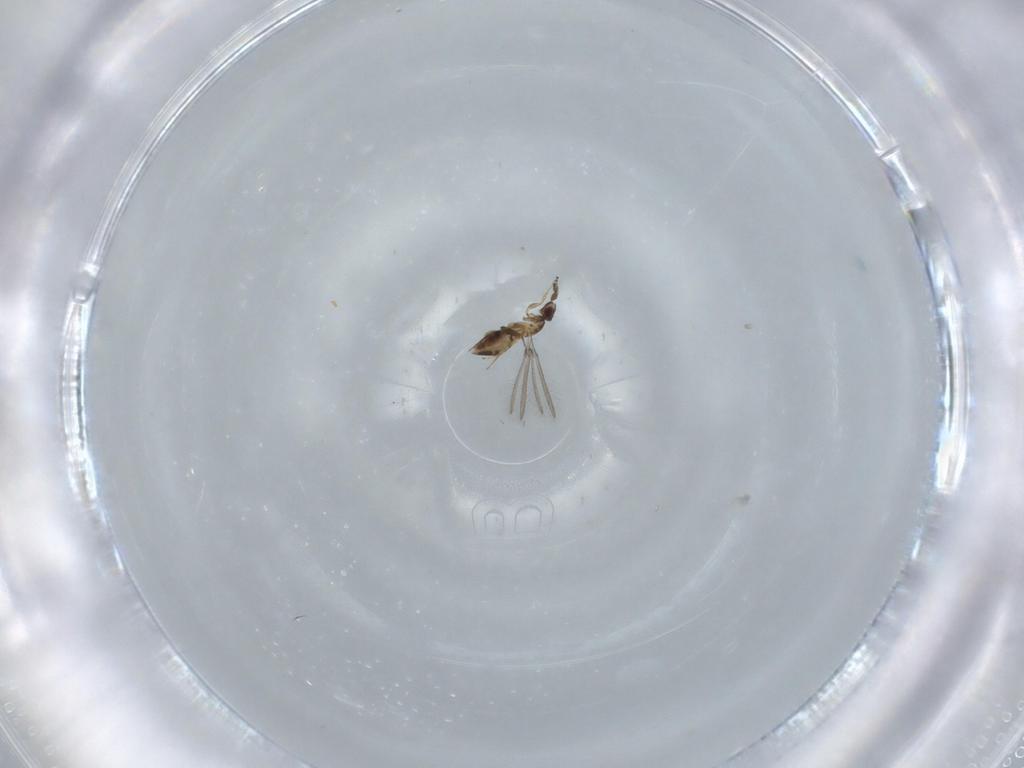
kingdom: Animalia
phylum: Arthropoda
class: Insecta
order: Hymenoptera
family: Mymaridae
